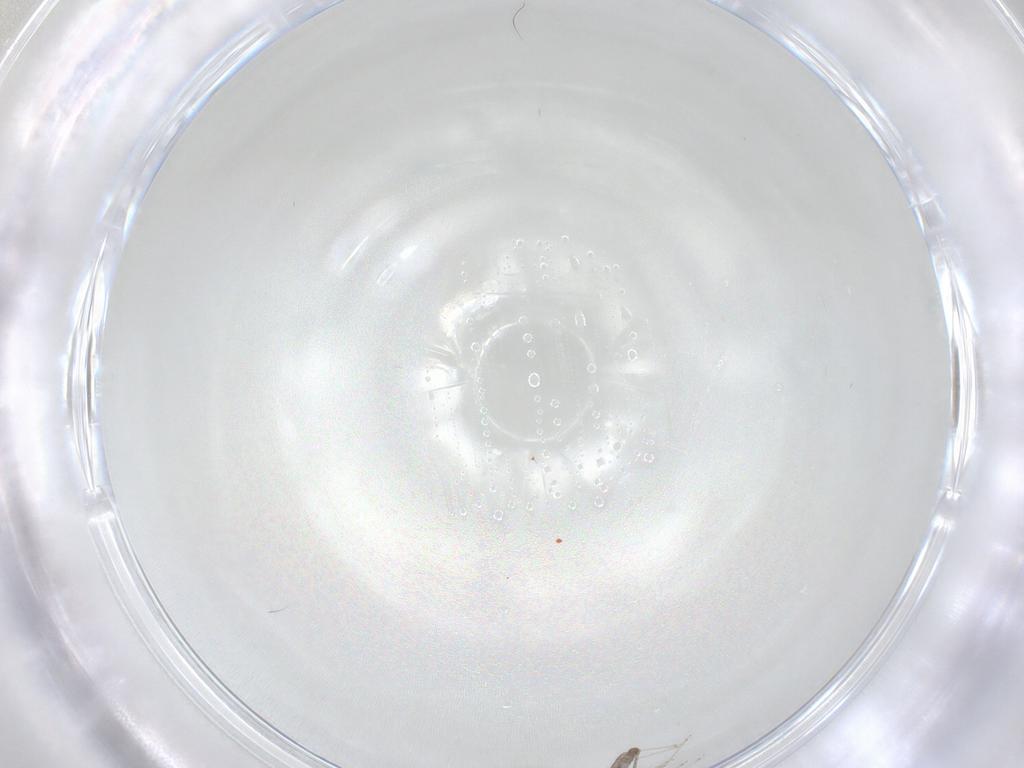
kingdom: Animalia
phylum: Arthropoda
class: Insecta
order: Diptera
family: Cecidomyiidae
